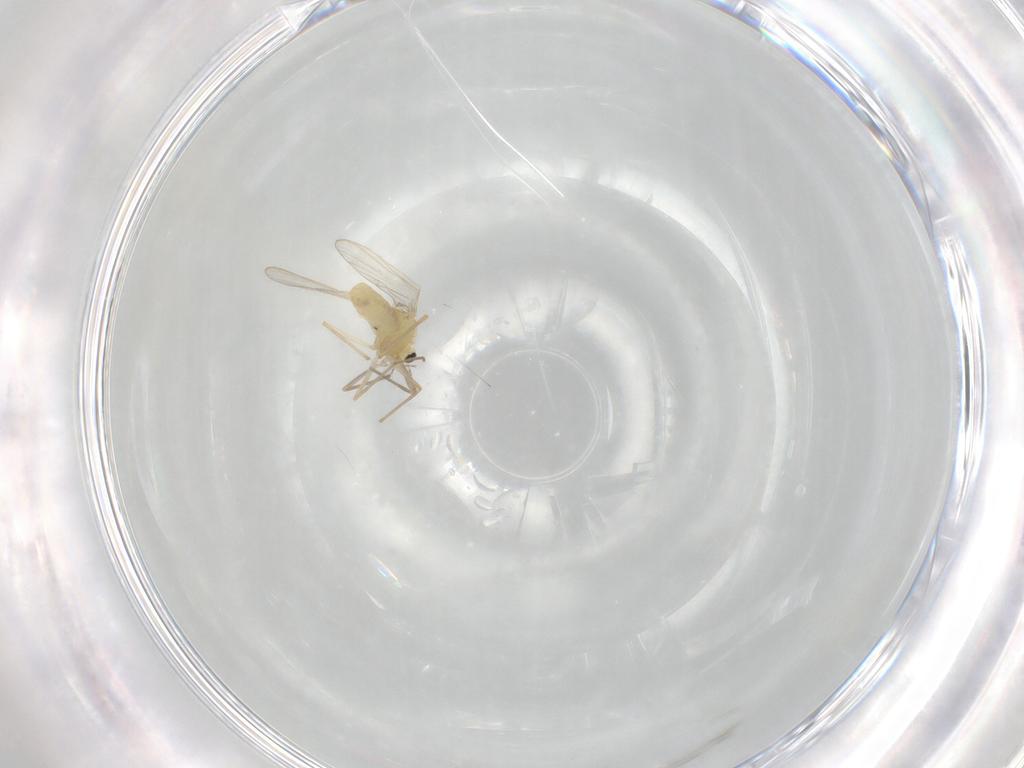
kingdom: Animalia
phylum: Arthropoda
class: Insecta
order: Diptera
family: Chironomidae
